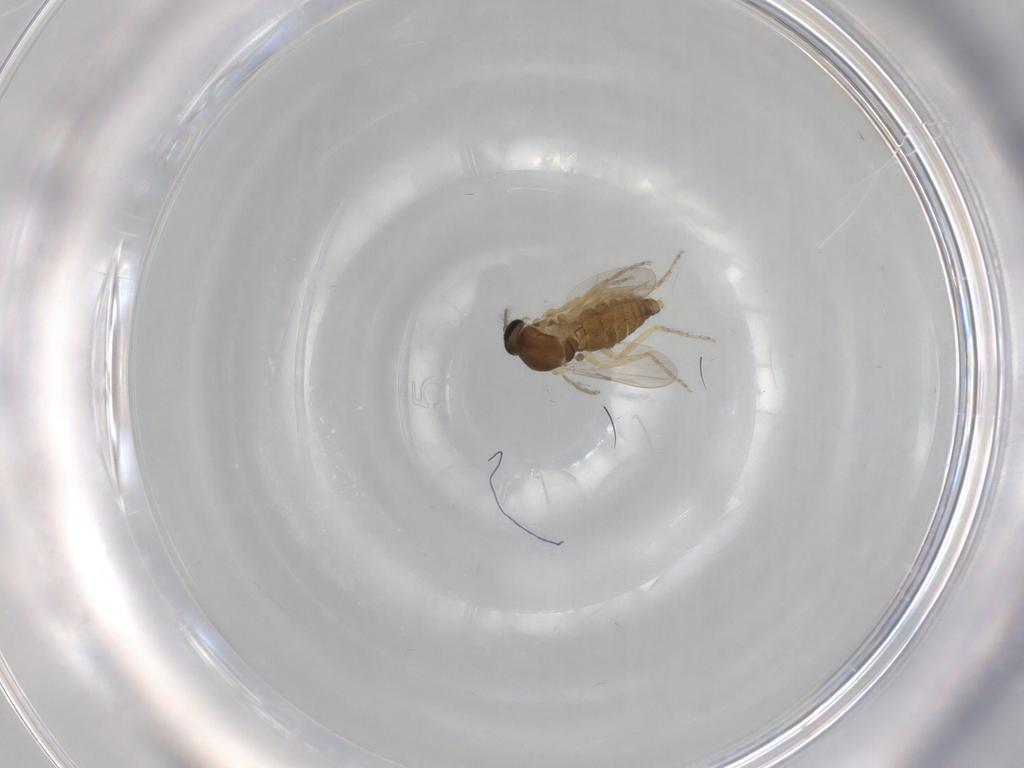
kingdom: Animalia
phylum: Arthropoda
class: Insecta
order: Diptera
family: Ceratopogonidae
